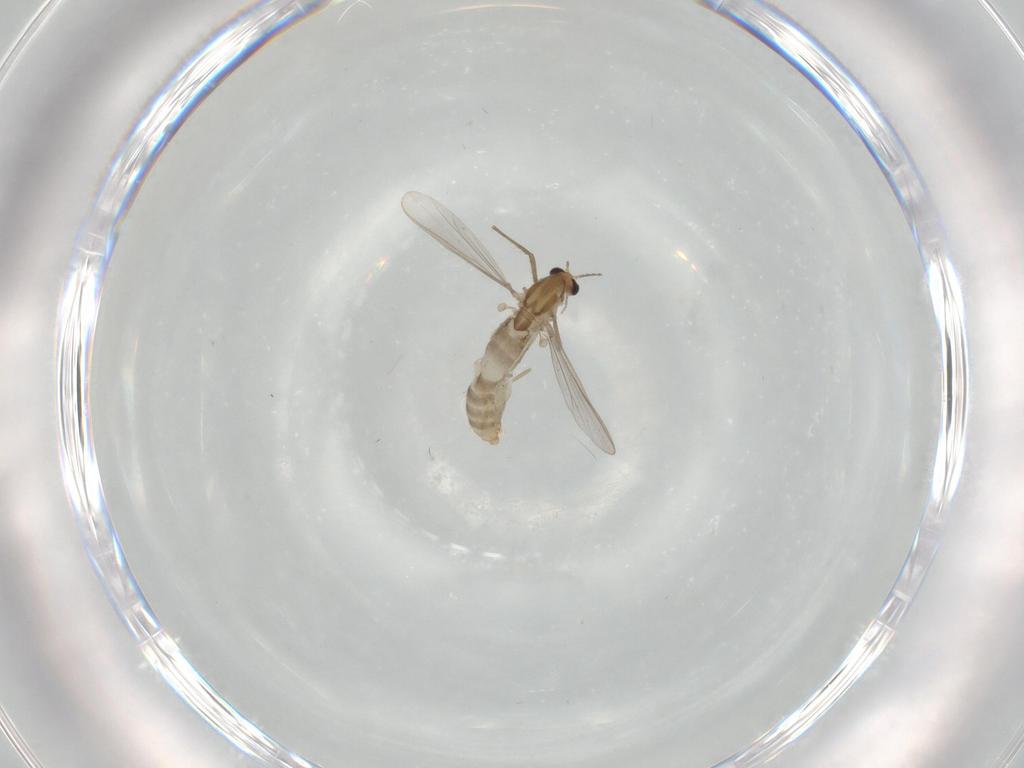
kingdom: Animalia
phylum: Arthropoda
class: Insecta
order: Diptera
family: Chironomidae
